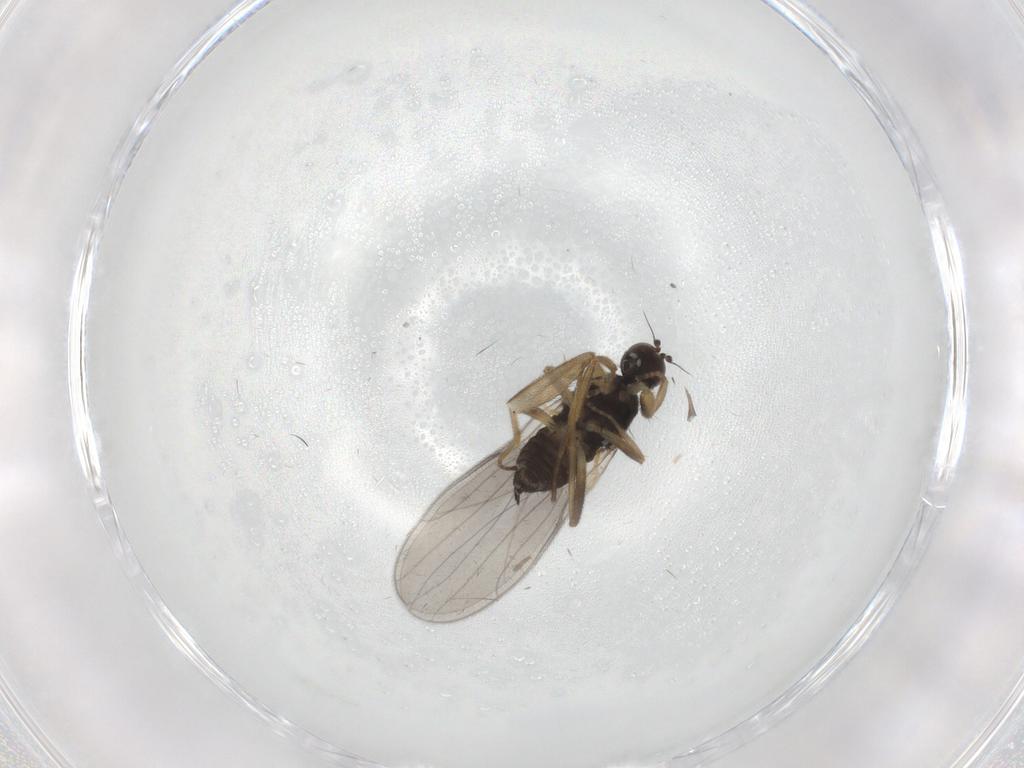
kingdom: Animalia
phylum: Arthropoda
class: Insecta
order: Diptera
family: Hybotidae
